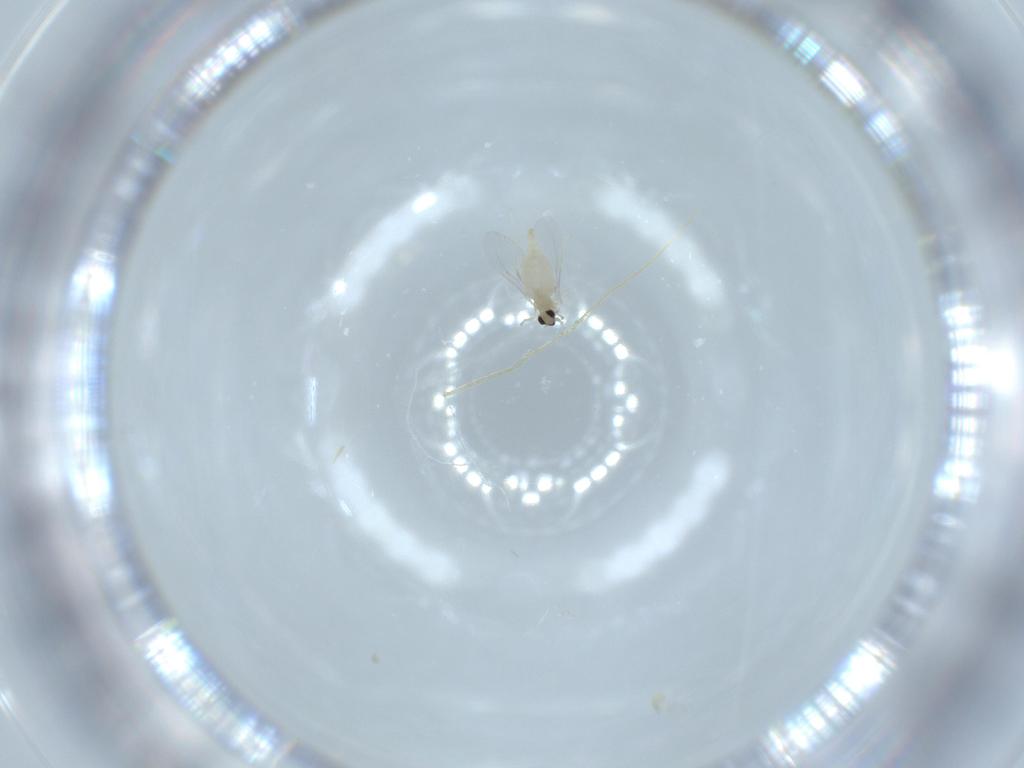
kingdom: Animalia
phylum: Arthropoda
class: Insecta
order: Diptera
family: Cecidomyiidae
